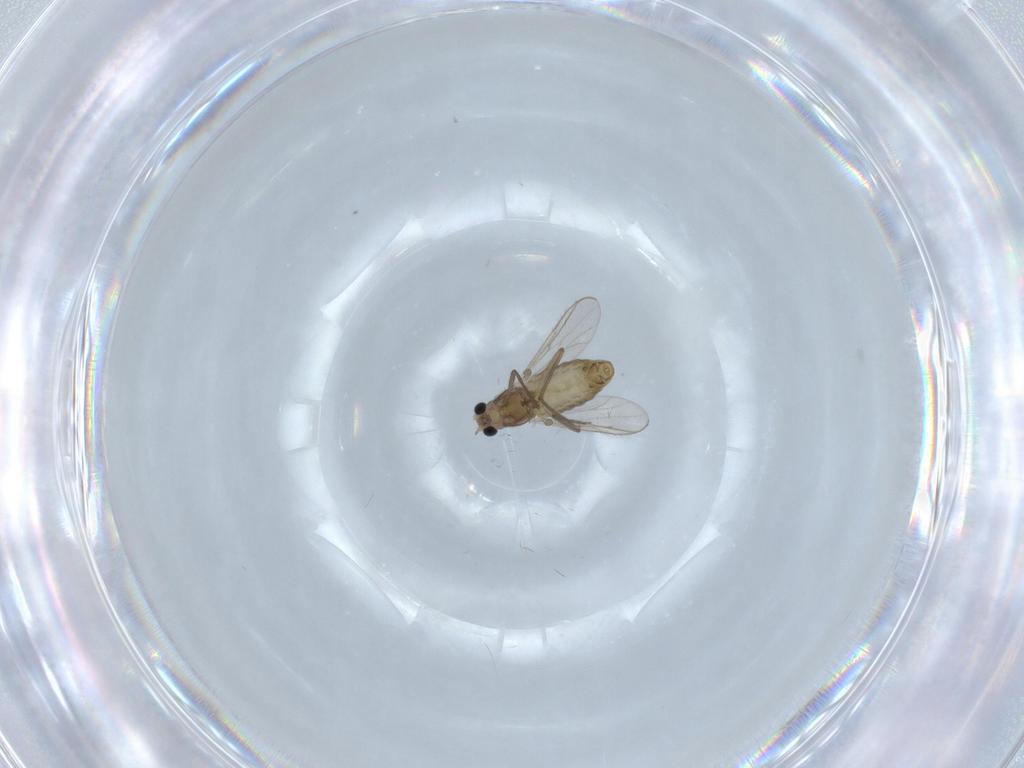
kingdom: Animalia
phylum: Arthropoda
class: Insecta
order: Diptera
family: Chironomidae
